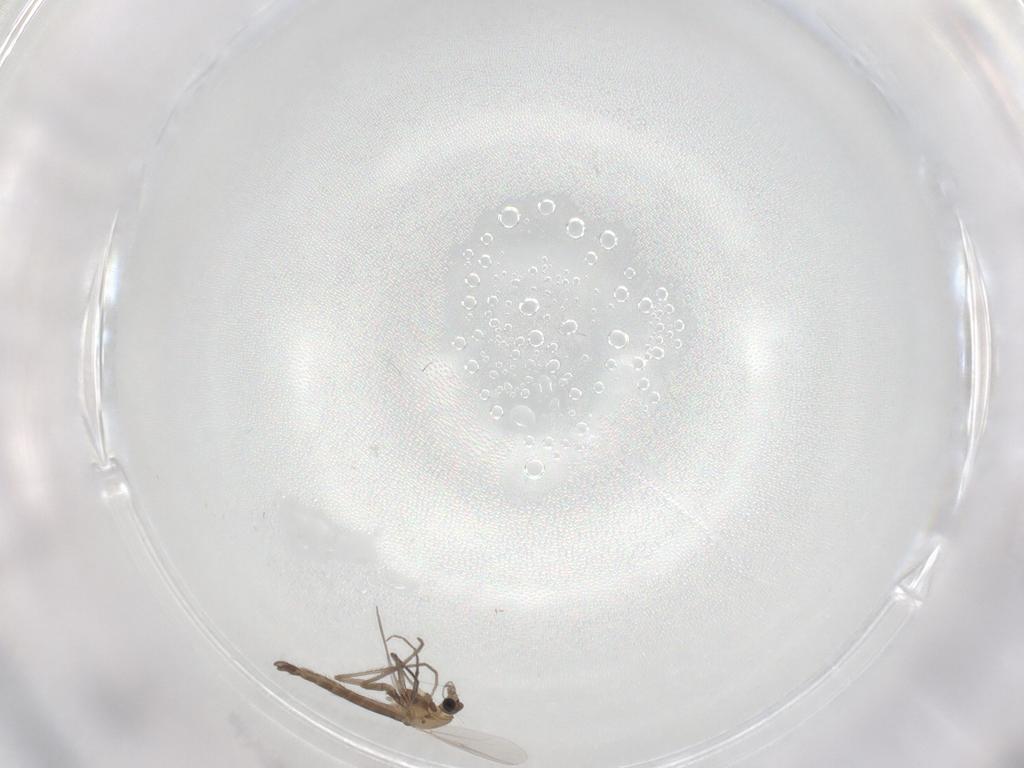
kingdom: Animalia
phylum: Arthropoda
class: Insecta
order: Diptera
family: Chironomidae
